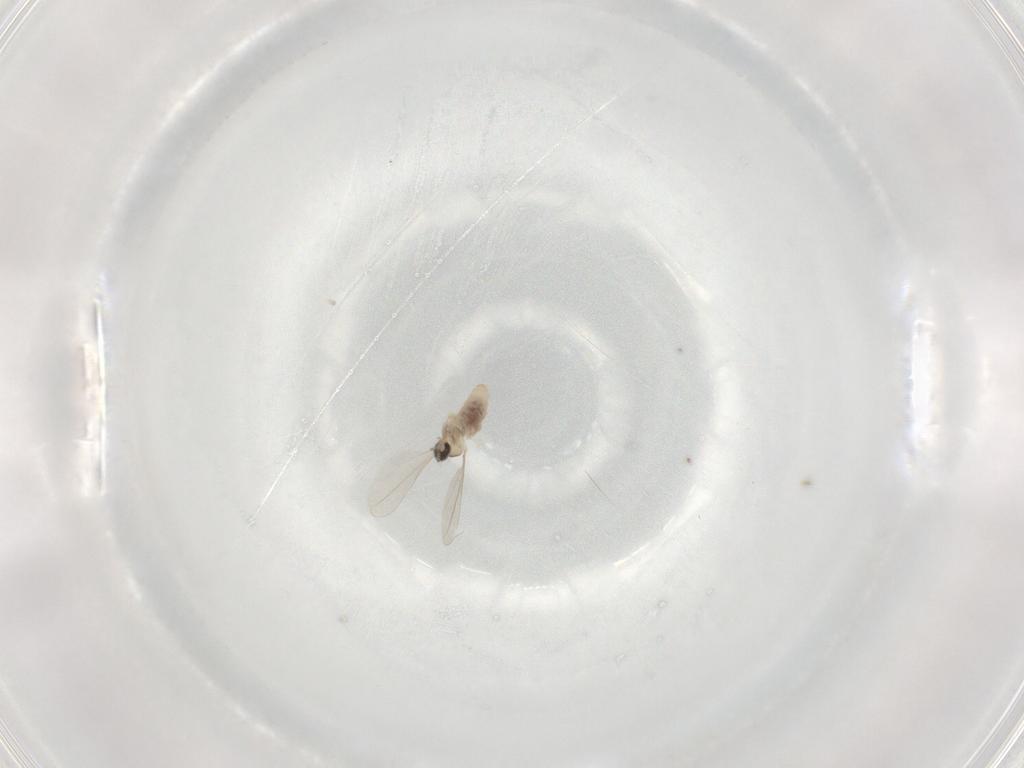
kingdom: Animalia
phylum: Arthropoda
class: Insecta
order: Diptera
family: Cecidomyiidae
